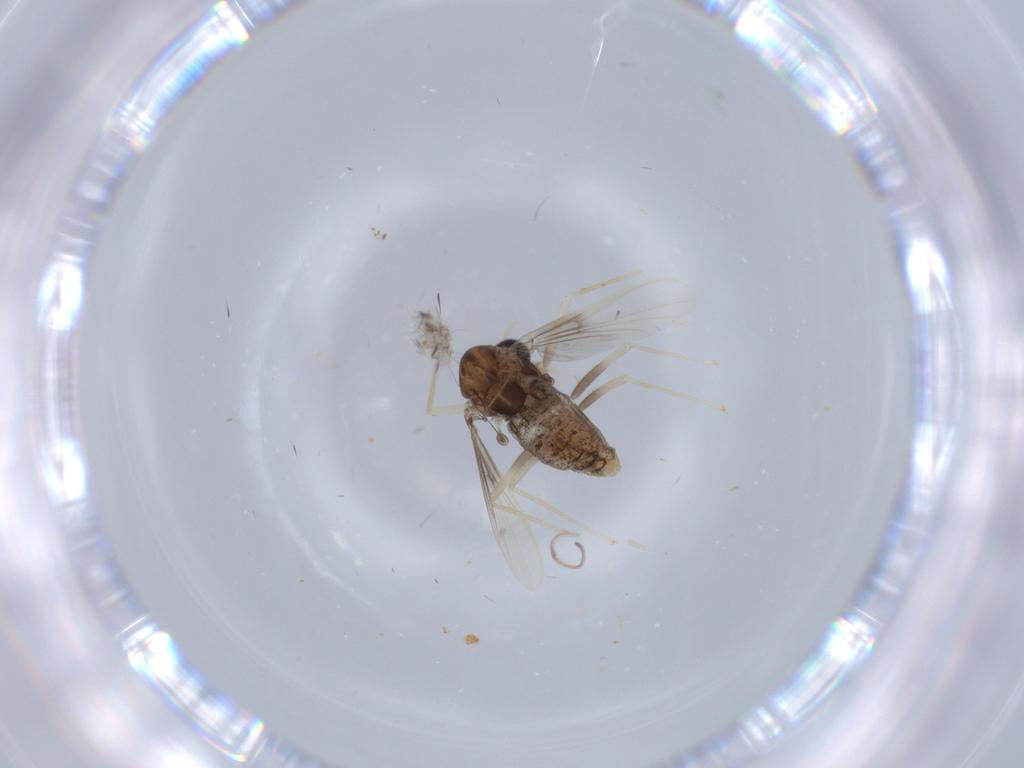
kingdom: Animalia
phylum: Arthropoda
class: Insecta
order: Diptera
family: Chironomidae
